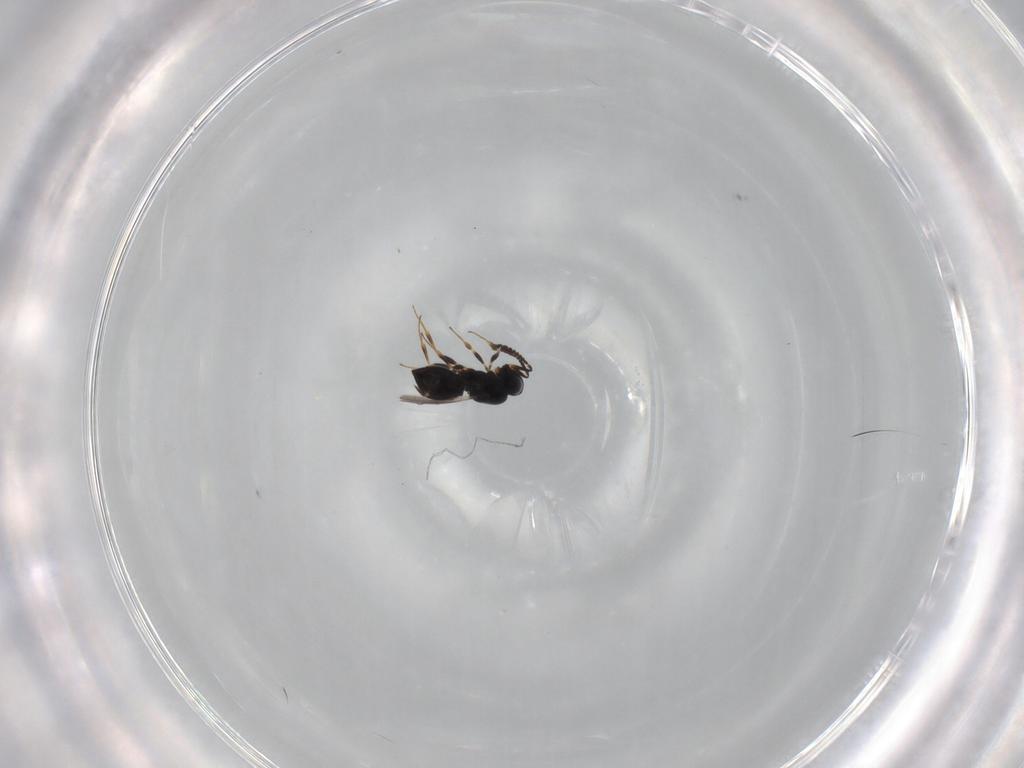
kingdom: Animalia
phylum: Arthropoda
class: Insecta
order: Hymenoptera
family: Scelionidae
